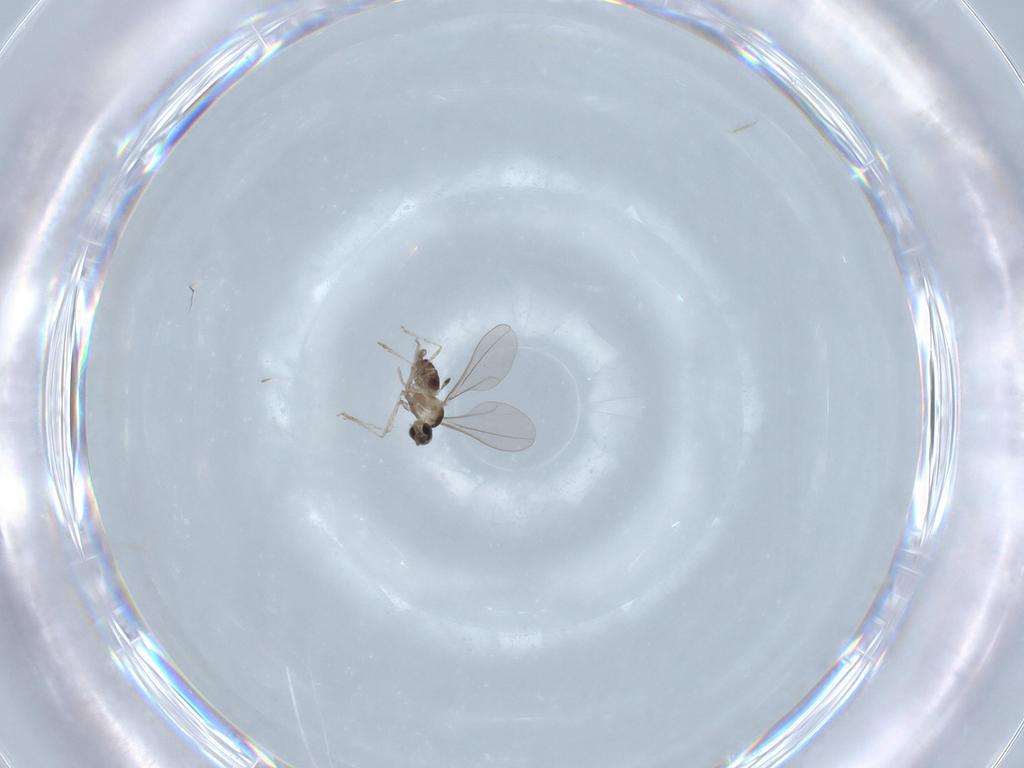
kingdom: Animalia
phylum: Arthropoda
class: Insecta
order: Diptera
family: Cecidomyiidae
